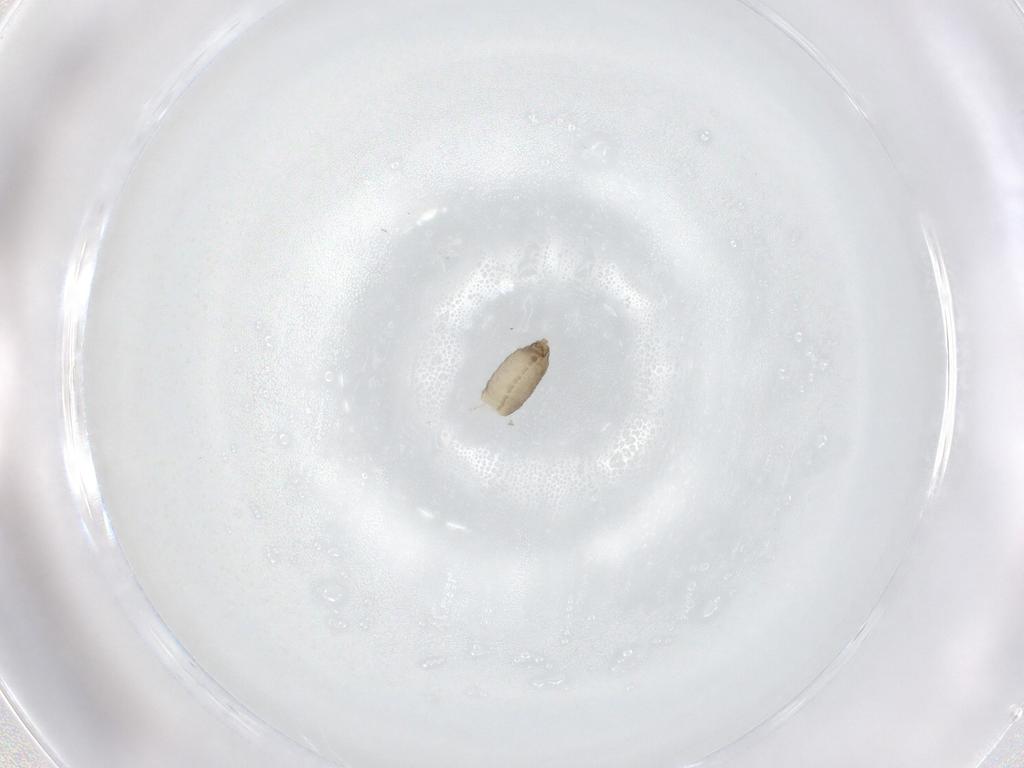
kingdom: Animalia
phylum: Arthropoda
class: Insecta
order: Diptera
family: Chironomidae
